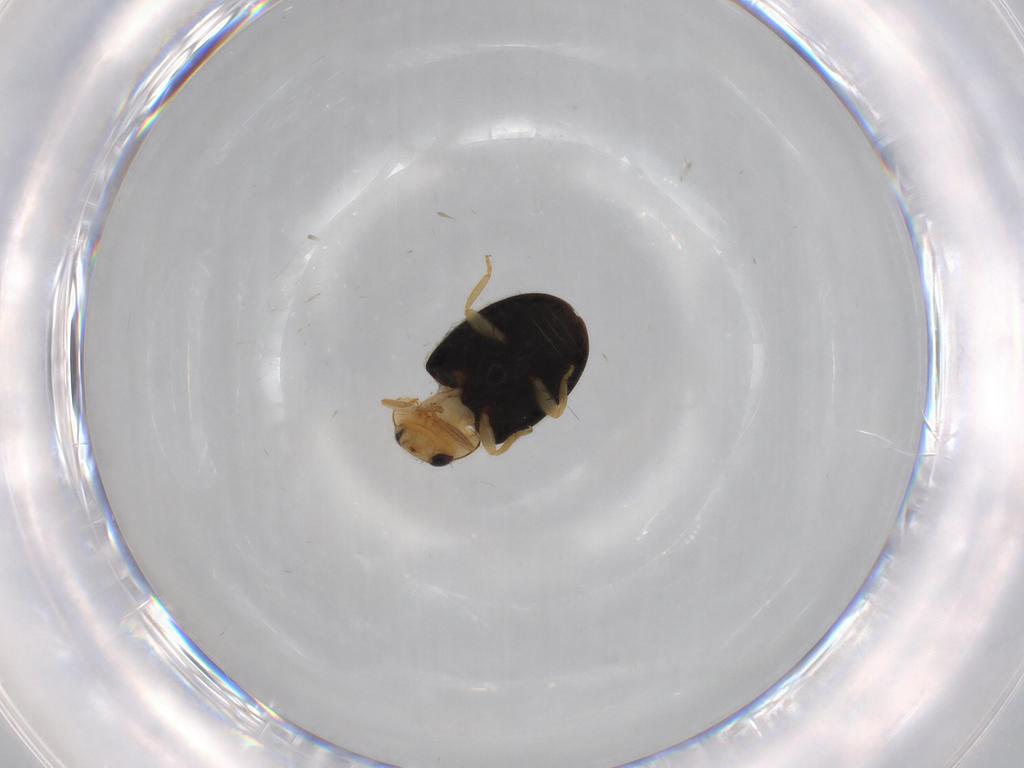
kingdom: Animalia
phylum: Arthropoda
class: Insecta
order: Coleoptera
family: Coccinellidae
